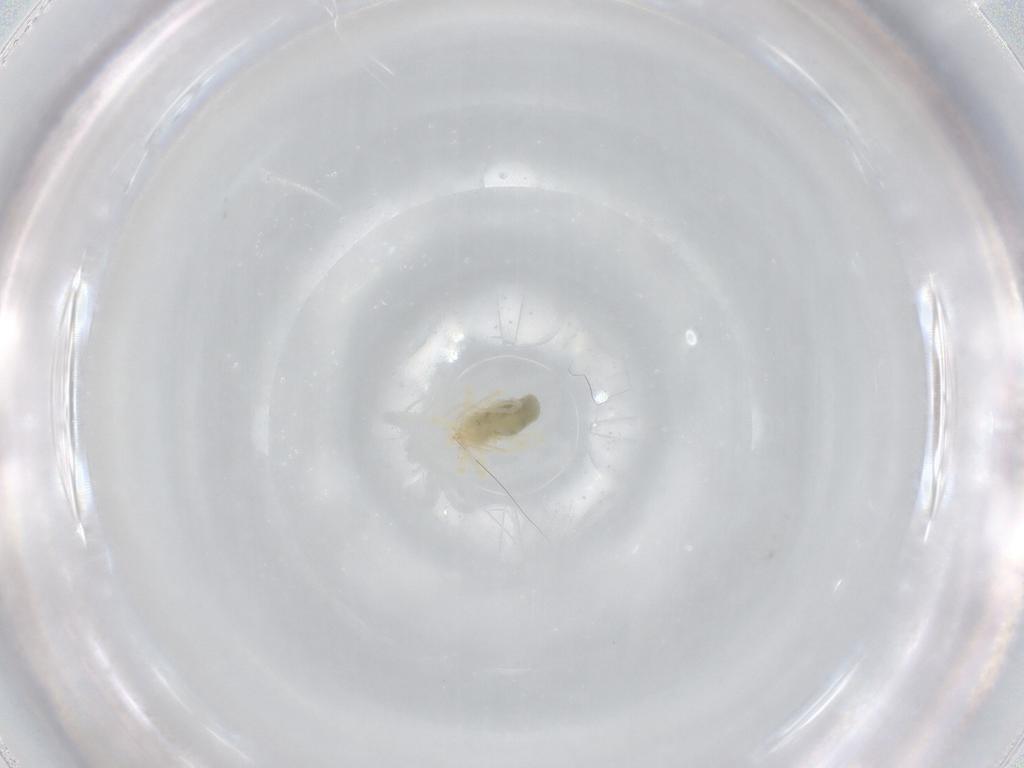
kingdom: Animalia
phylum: Arthropoda
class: Arachnida
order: Trombidiformes
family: Anystidae
